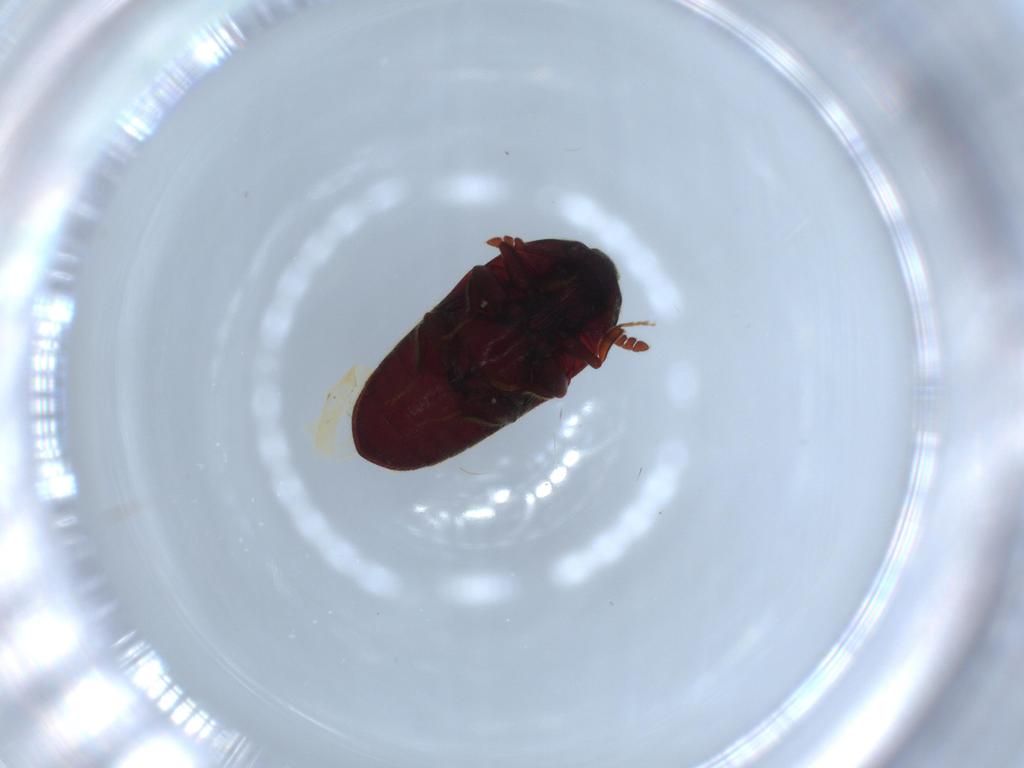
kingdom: Animalia
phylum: Arthropoda
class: Insecta
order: Coleoptera
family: Throscidae
